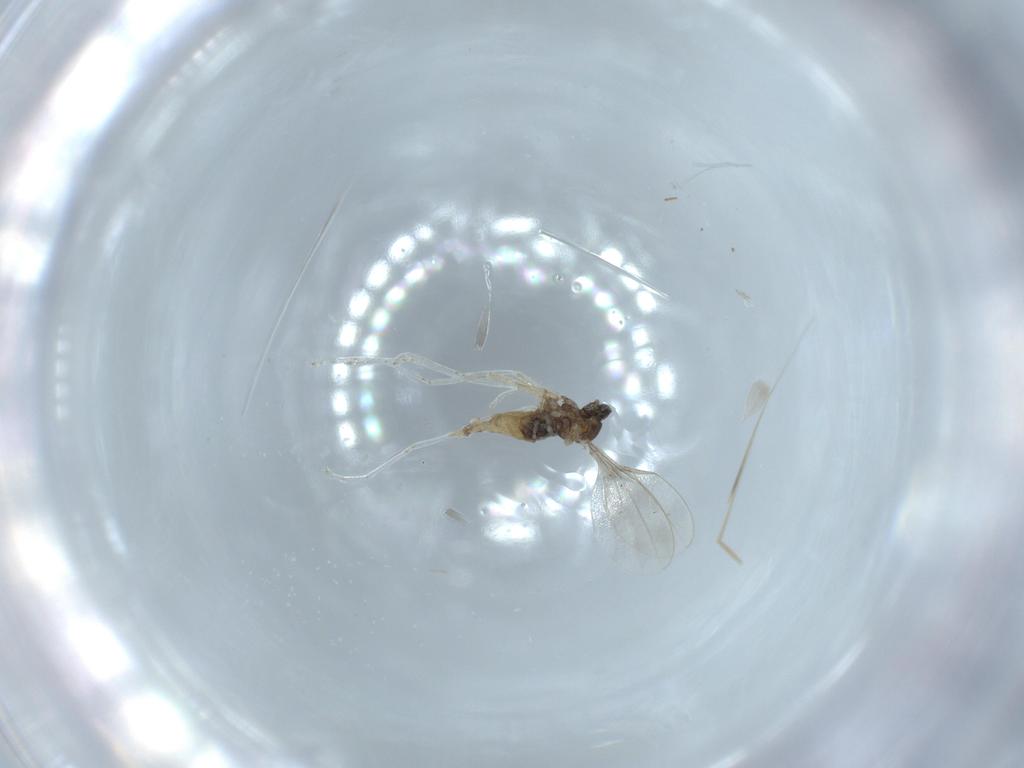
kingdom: Animalia
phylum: Arthropoda
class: Insecta
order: Diptera
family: Cecidomyiidae
